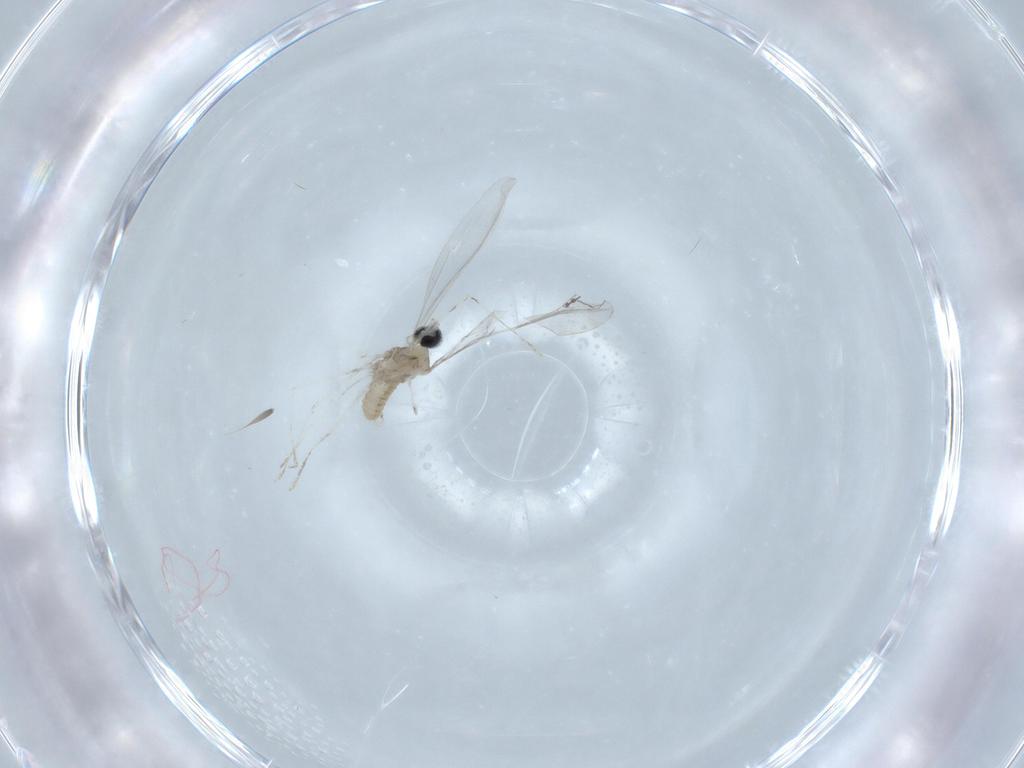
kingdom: Animalia
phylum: Arthropoda
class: Insecta
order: Diptera
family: Cecidomyiidae
